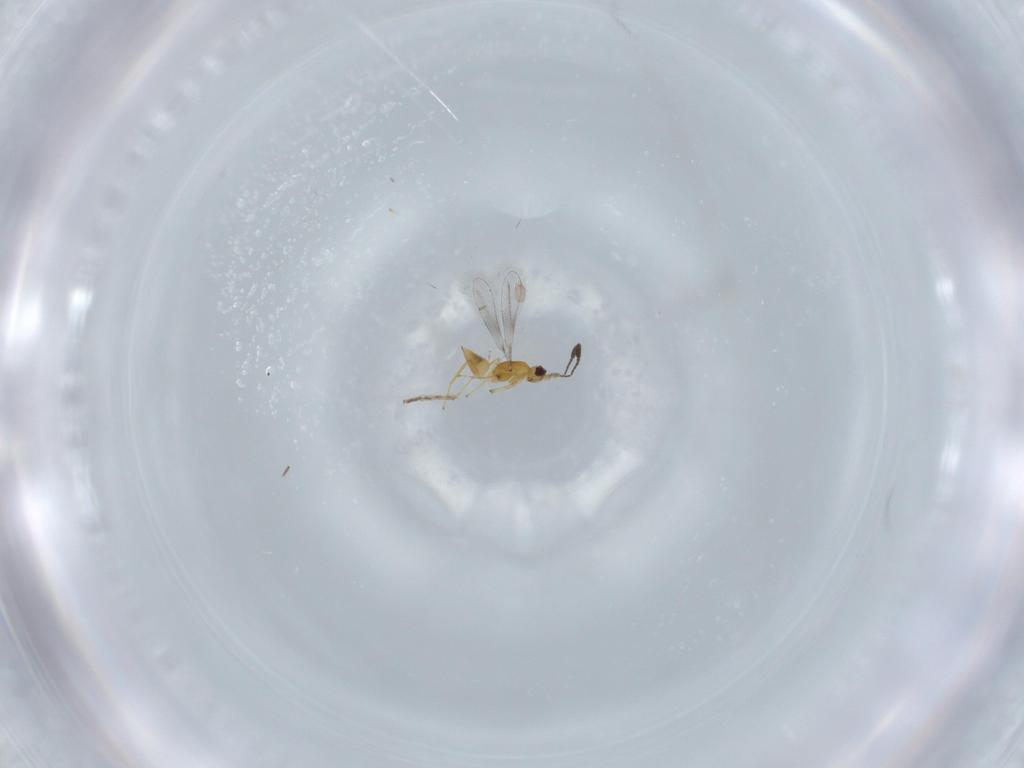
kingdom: Animalia
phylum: Arthropoda
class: Insecta
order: Hymenoptera
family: Mymaridae
